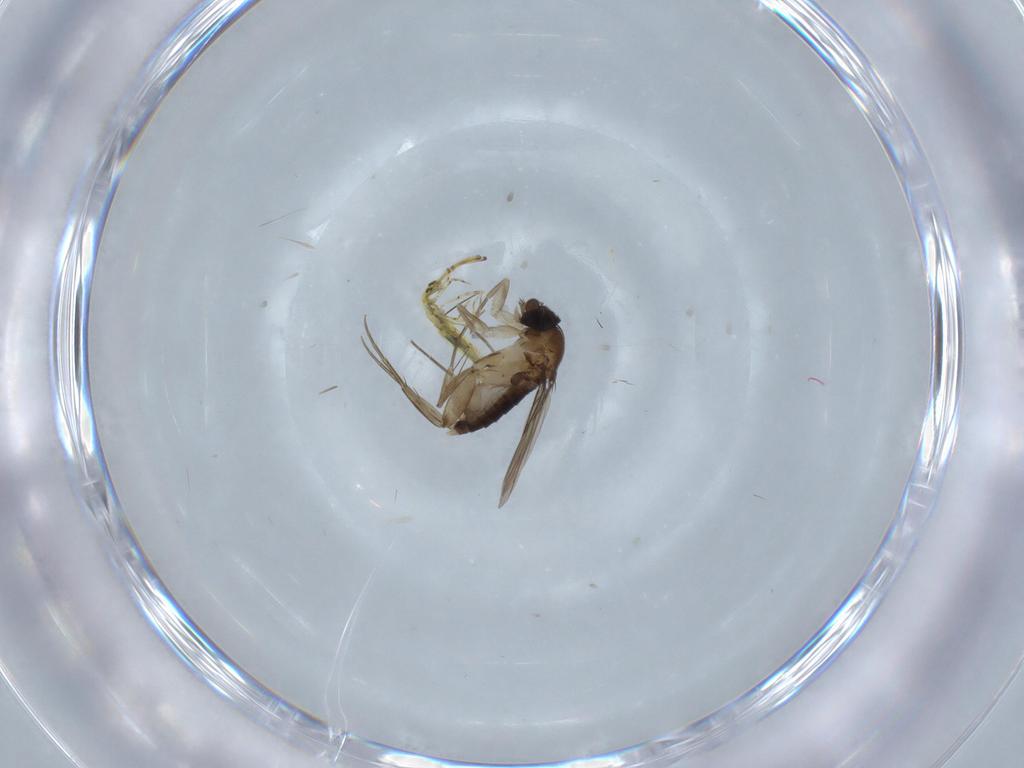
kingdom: Animalia
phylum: Arthropoda
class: Insecta
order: Diptera
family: Phoridae
